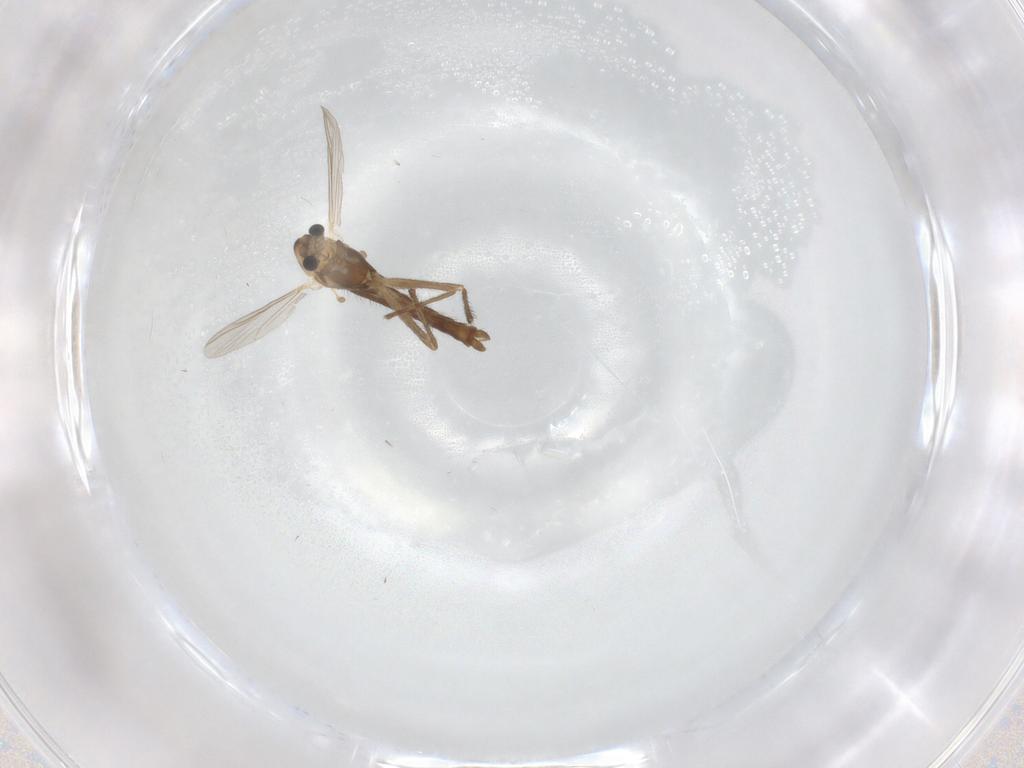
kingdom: Animalia
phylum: Arthropoda
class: Insecta
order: Diptera
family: Chironomidae
